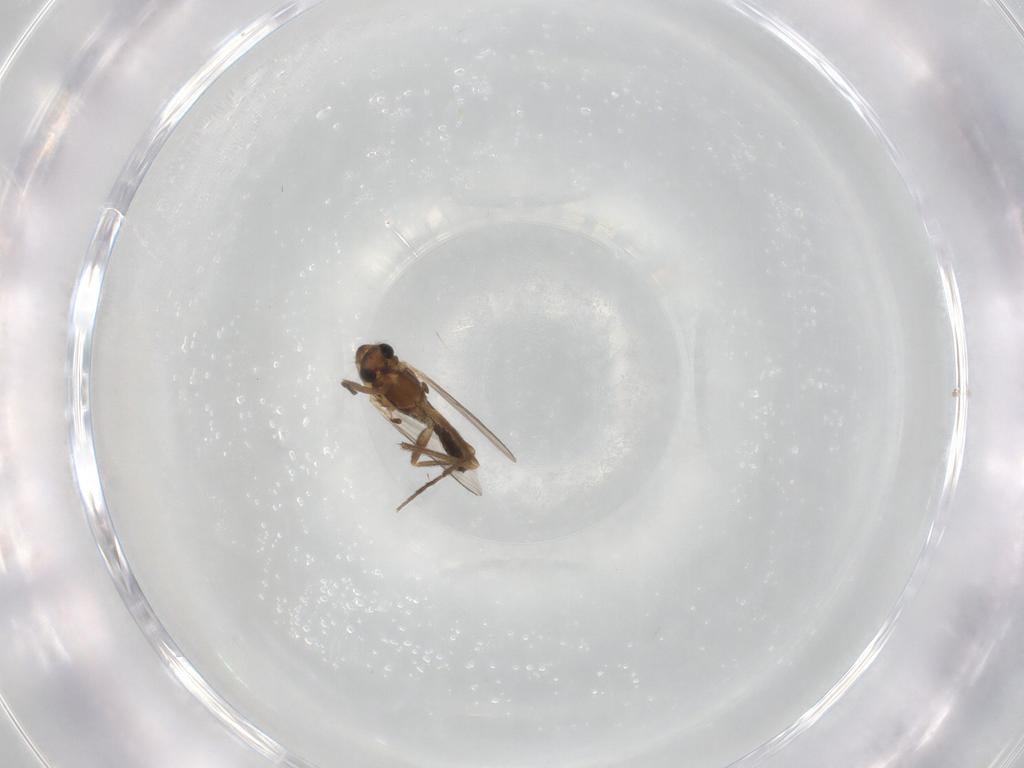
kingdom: Animalia
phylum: Arthropoda
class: Insecta
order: Diptera
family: Chironomidae
